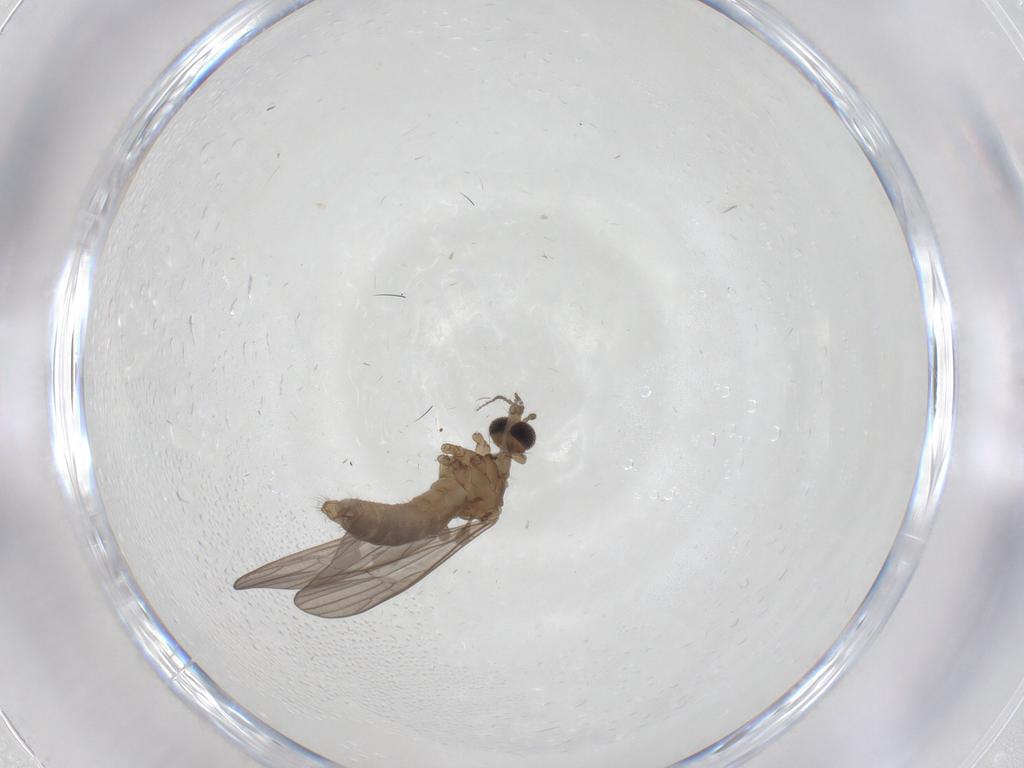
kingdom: Animalia
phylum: Arthropoda
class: Insecta
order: Diptera
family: Limoniidae
